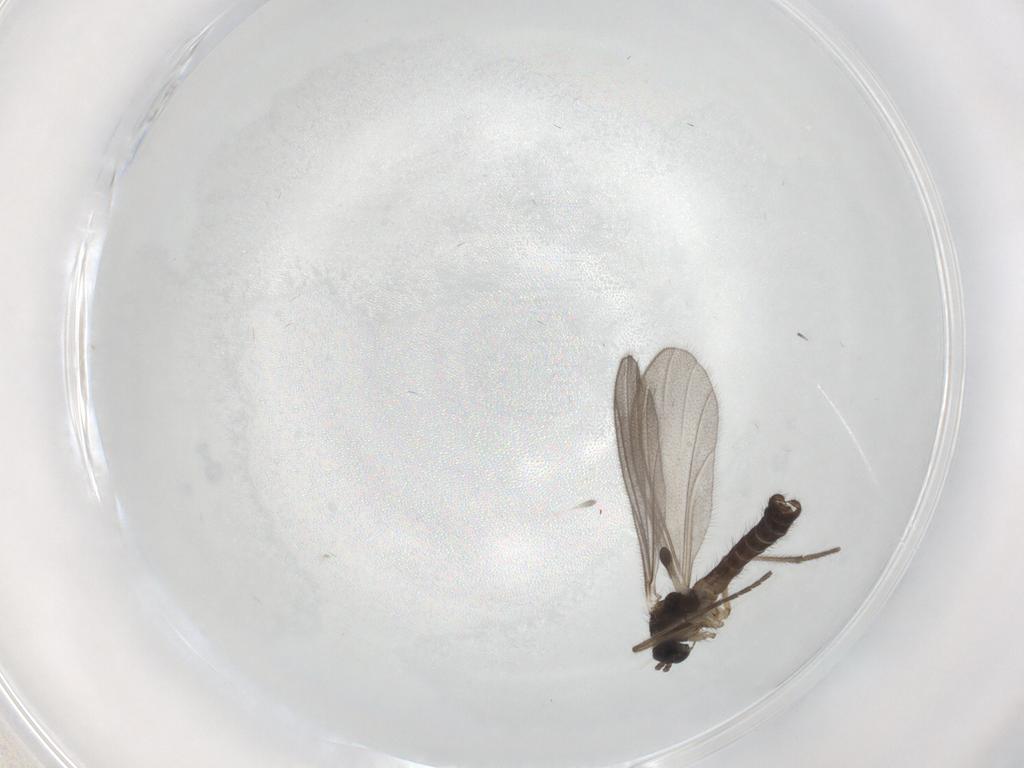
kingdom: Animalia
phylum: Arthropoda
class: Insecta
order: Diptera
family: Mycetophilidae
